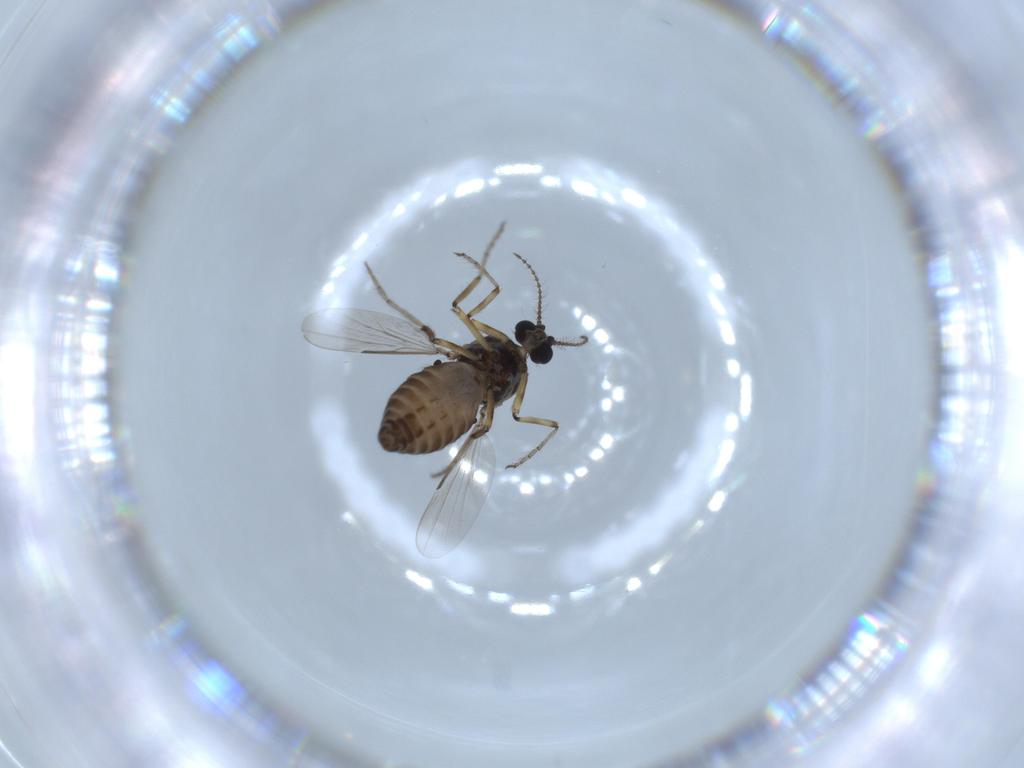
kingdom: Animalia
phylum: Arthropoda
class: Insecta
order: Diptera
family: Ceratopogonidae
